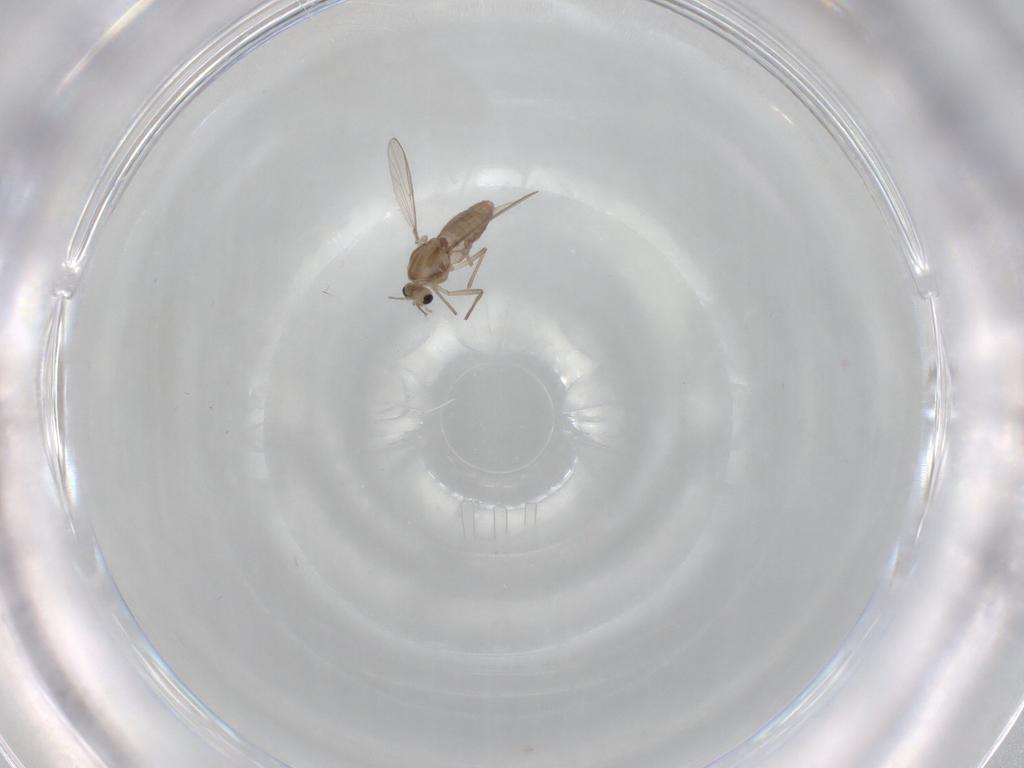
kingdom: Animalia
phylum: Arthropoda
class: Insecta
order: Diptera
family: Chironomidae
